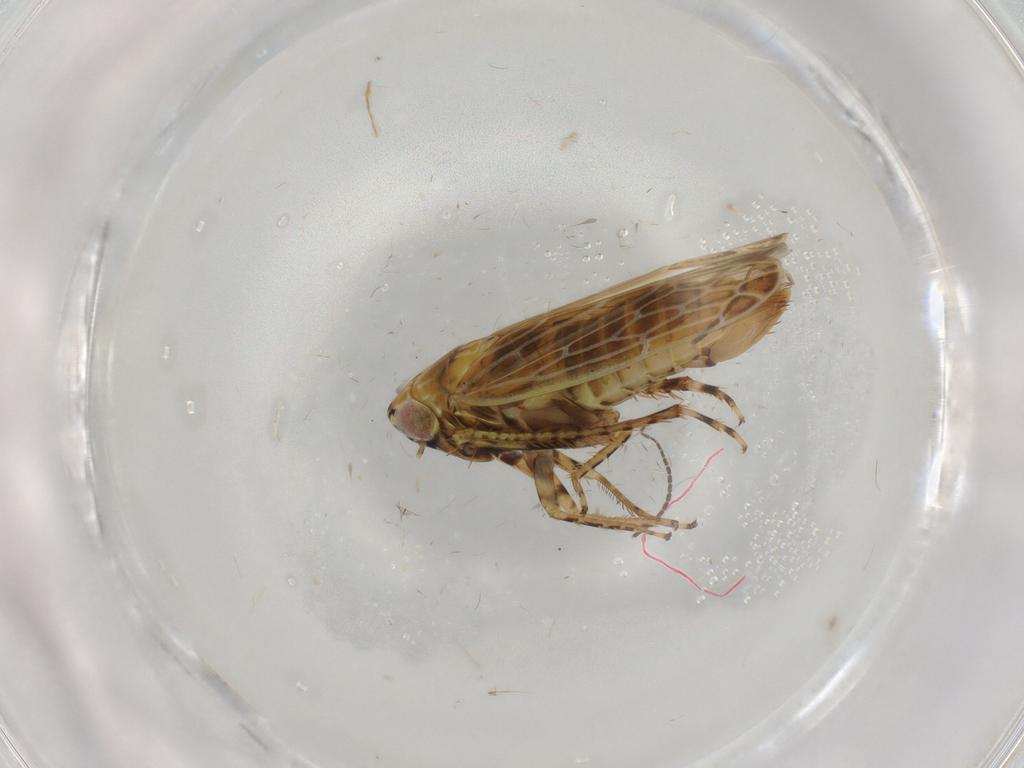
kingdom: Animalia
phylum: Arthropoda
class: Insecta
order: Hemiptera
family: Cicadellidae
